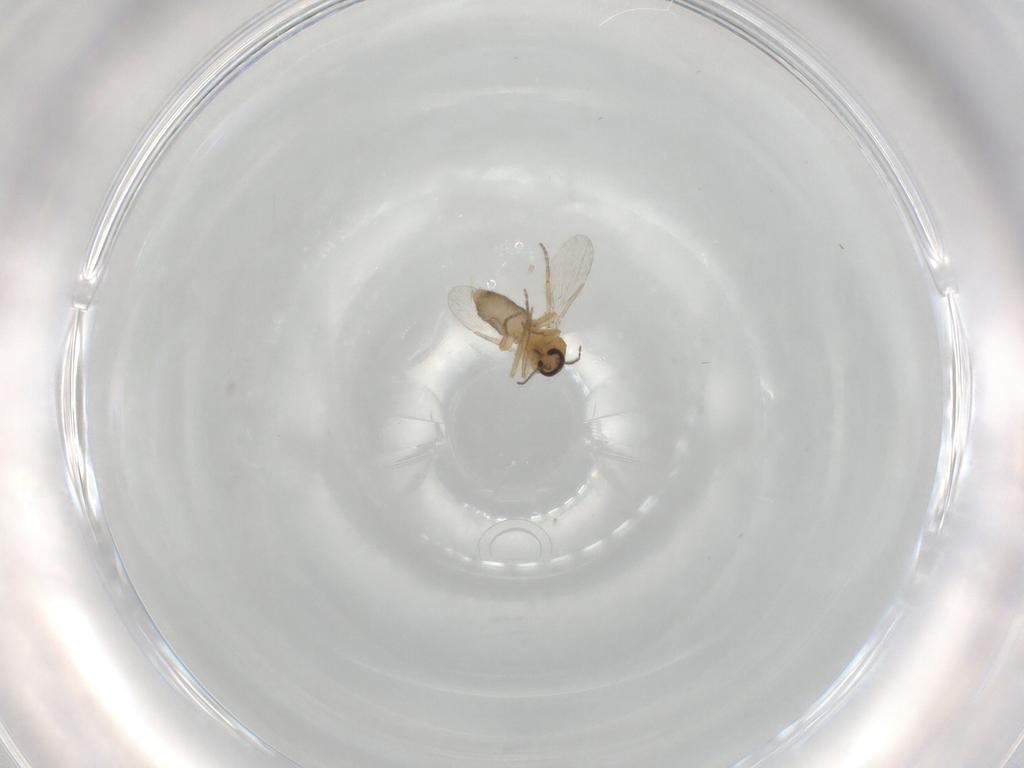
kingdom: Animalia
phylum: Arthropoda
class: Insecta
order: Diptera
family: Ceratopogonidae
